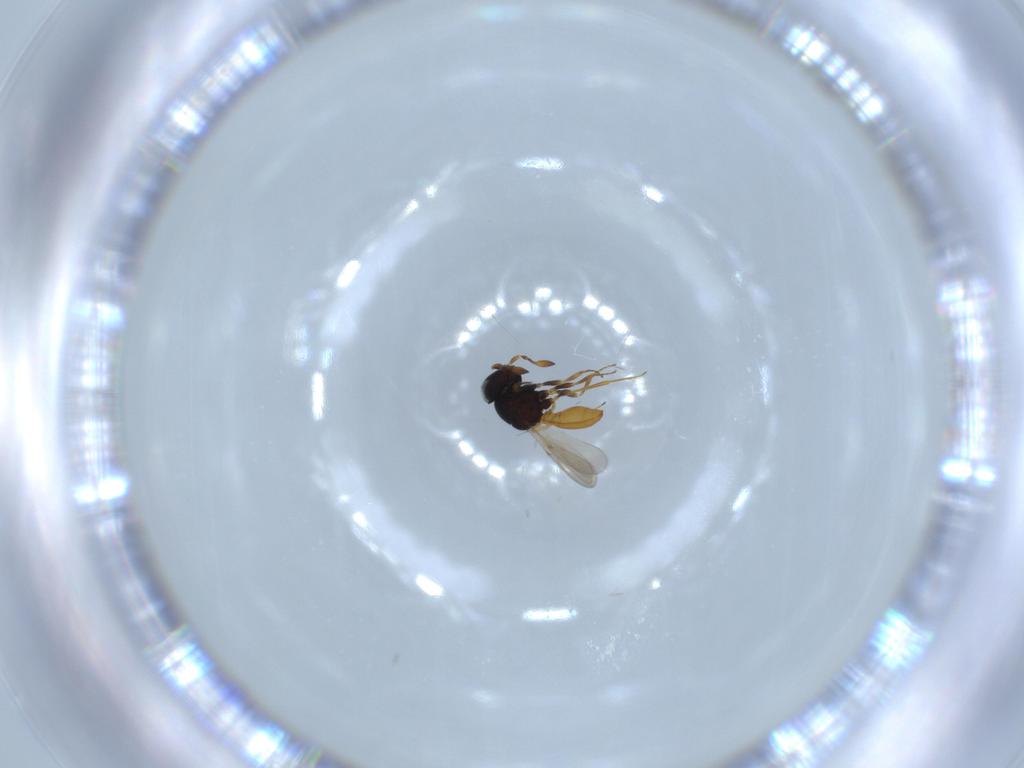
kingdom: Animalia
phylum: Arthropoda
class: Insecta
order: Hymenoptera
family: Scelionidae
